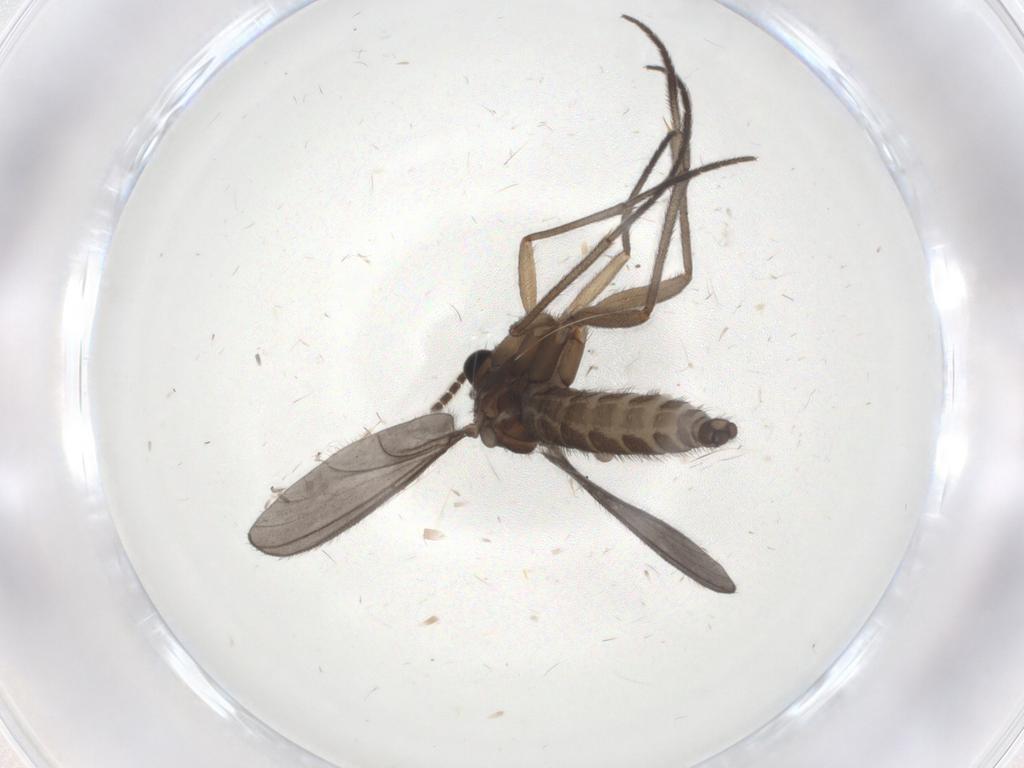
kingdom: Animalia
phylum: Arthropoda
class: Insecta
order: Diptera
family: Sciaridae
